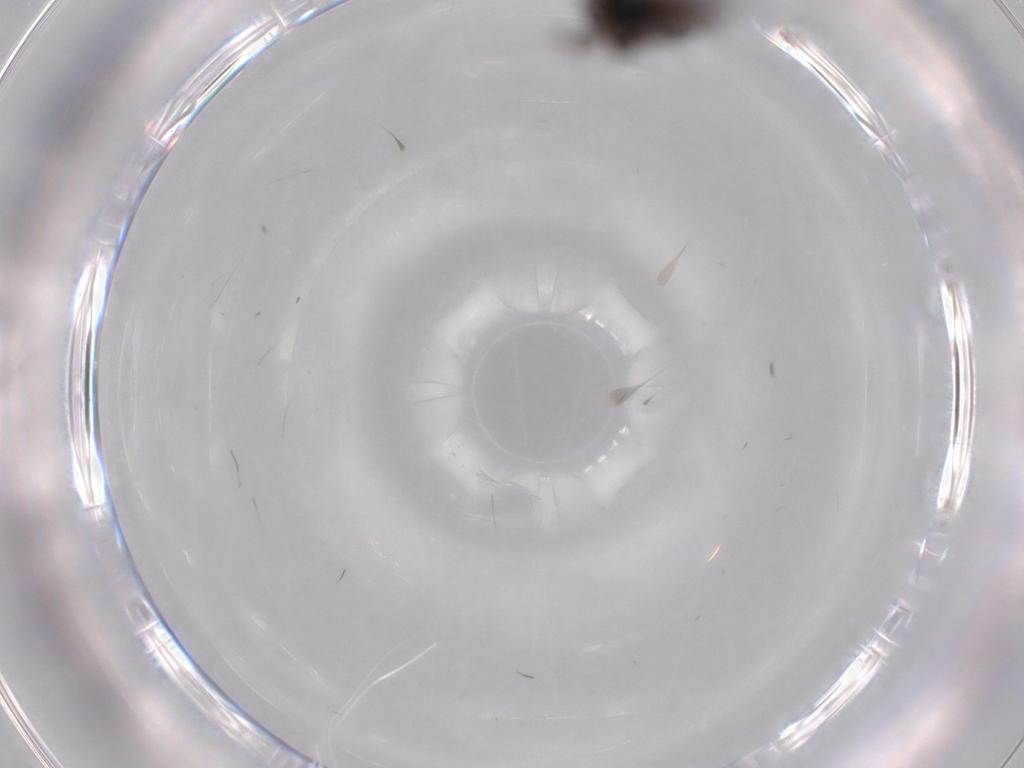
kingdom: Animalia
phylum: Arthropoda
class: Insecta
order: Diptera
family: Sciaridae
